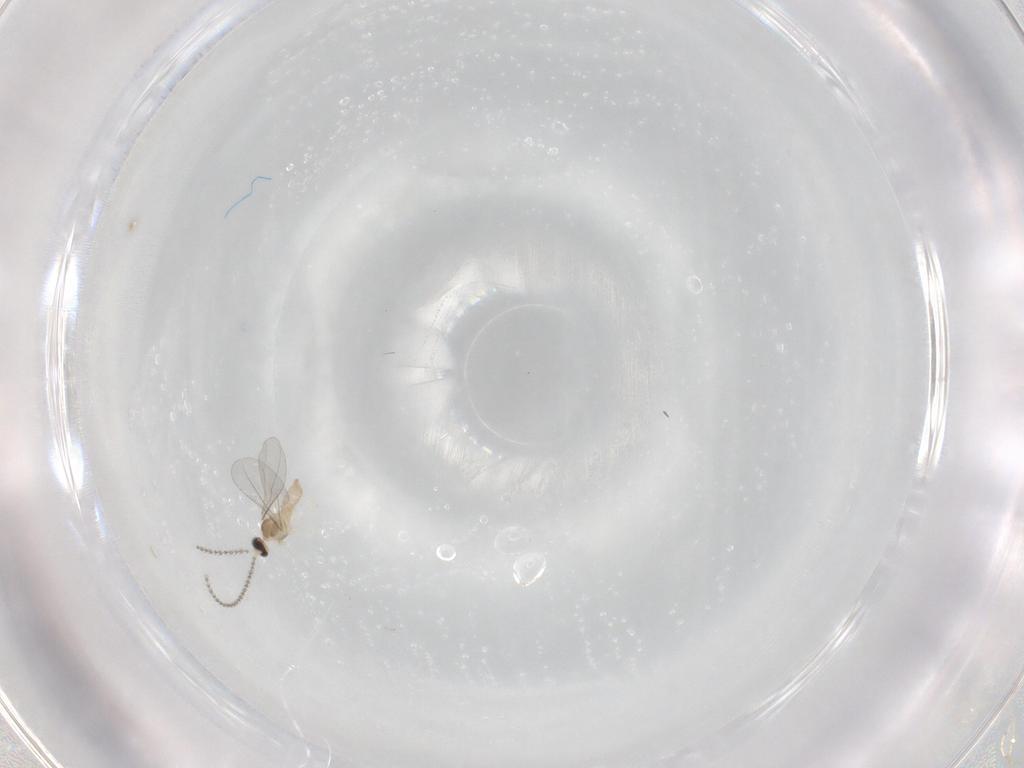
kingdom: Animalia
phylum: Arthropoda
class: Insecta
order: Diptera
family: Cecidomyiidae
